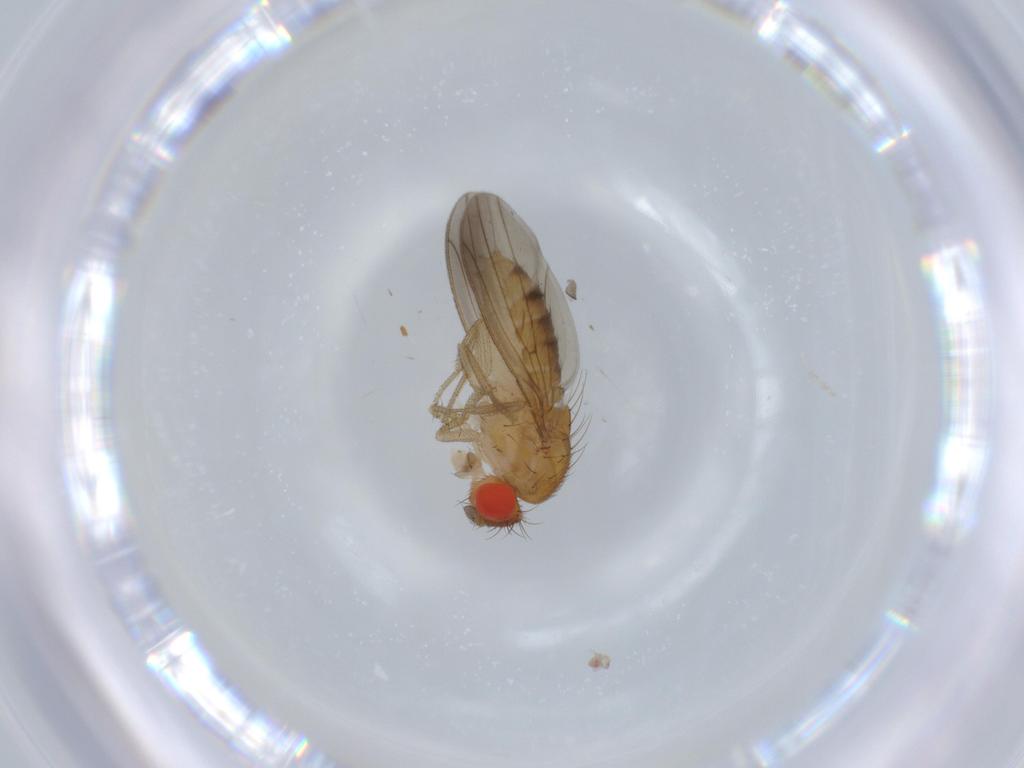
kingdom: Animalia
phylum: Arthropoda
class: Insecta
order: Diptera
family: Drosophilidae
